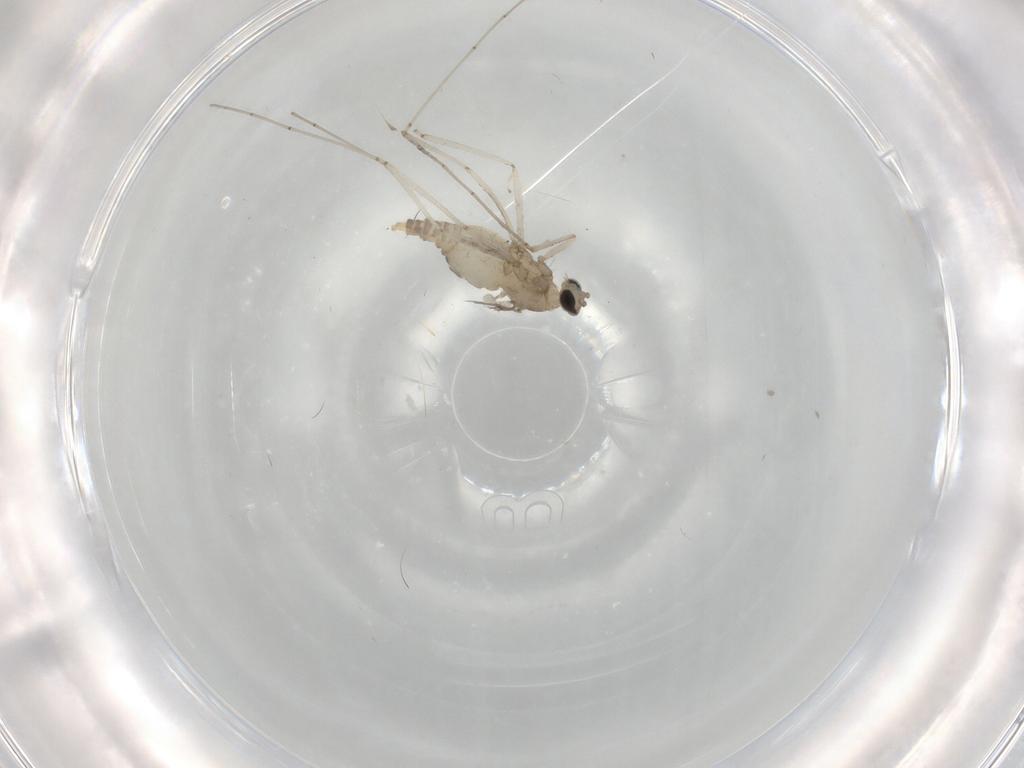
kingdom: Animalia
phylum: Arthropoda
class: Insecta
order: Diptera
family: Cecidomyiidae
